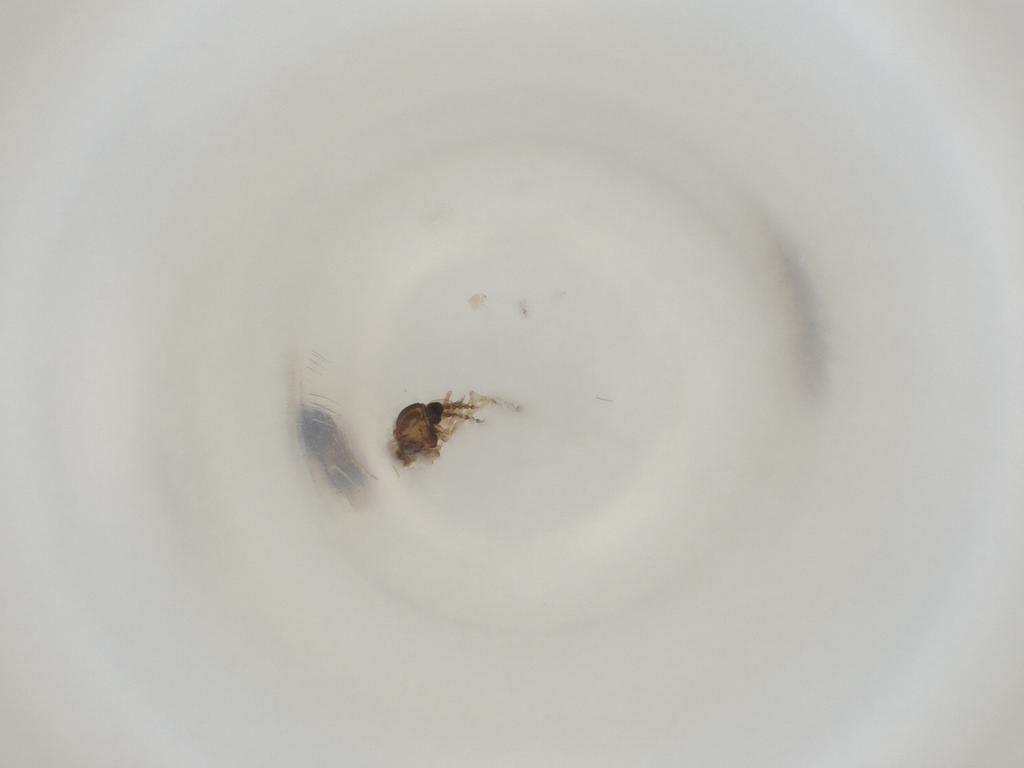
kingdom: Animalia
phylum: Arthropoda
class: Insecta
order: Diptera
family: Cecidomyiidae
